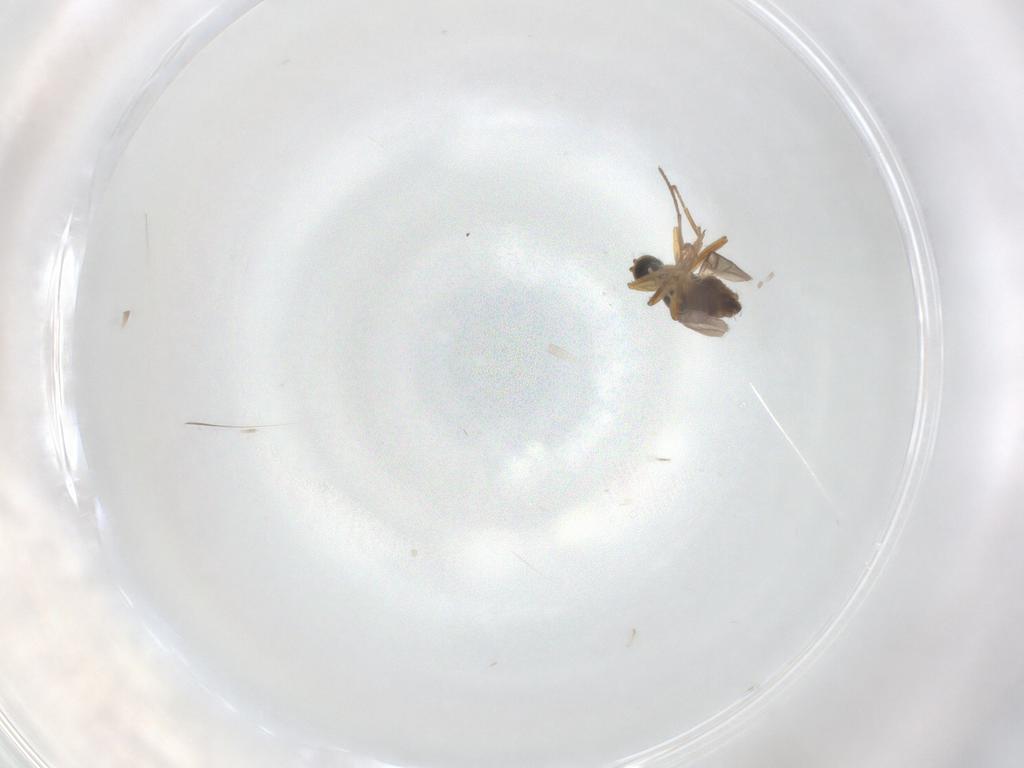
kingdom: Animalia
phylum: Arthropoda
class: Insecta
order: Diptera
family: Hybotidae
